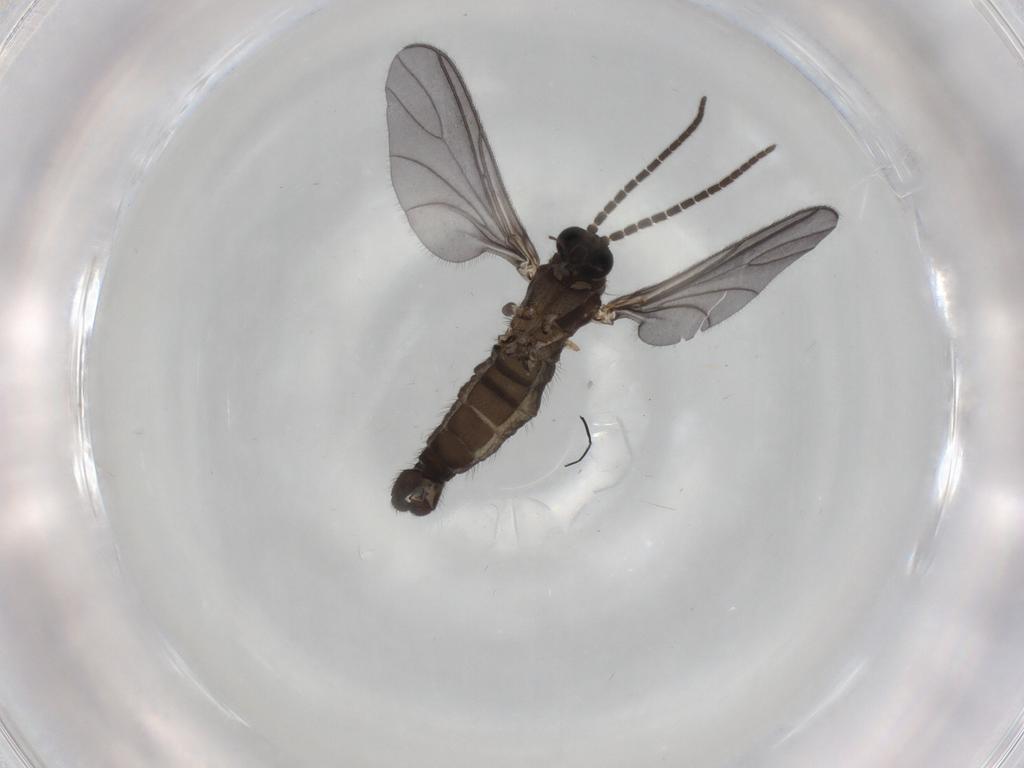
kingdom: Animalia
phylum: Arthropoda
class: Insecta
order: Diptera
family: Sciaridae
